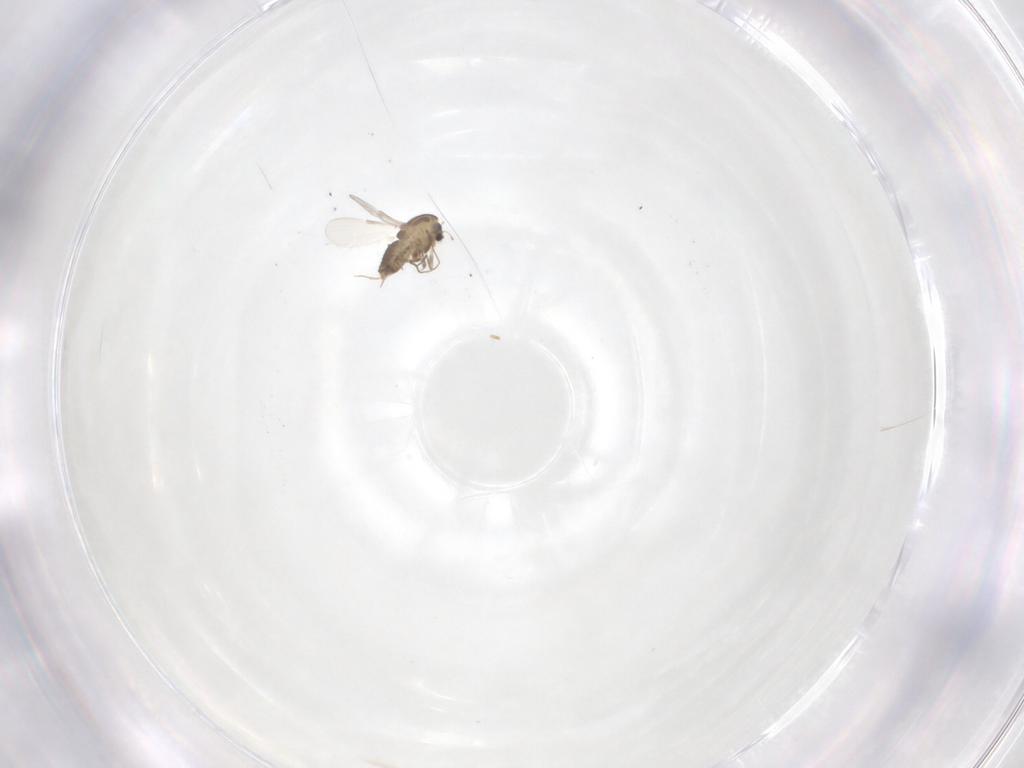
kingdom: Animalia
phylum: Arthropoda
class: Insecta
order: Diptera
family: Chironomidae
